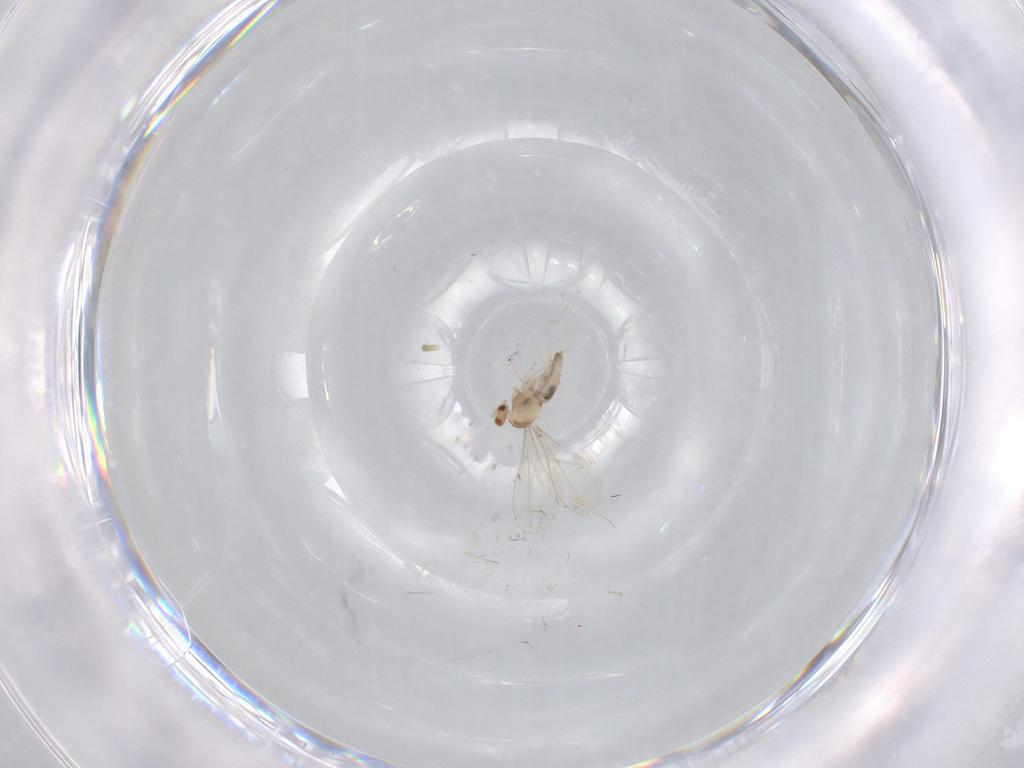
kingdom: Animalia
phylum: Arthropoda
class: Insecta
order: Diptera
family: Cecidomyiidae
